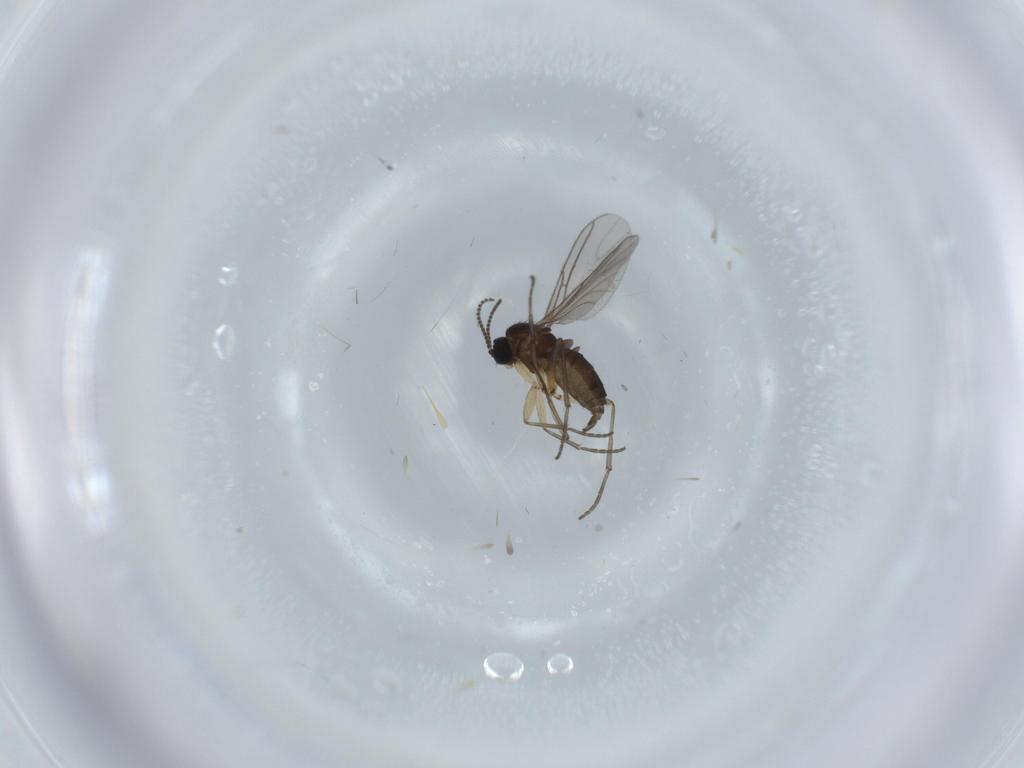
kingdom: Animalia
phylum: Arthropoda
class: Insecta
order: Diptera
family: Sciaridae
